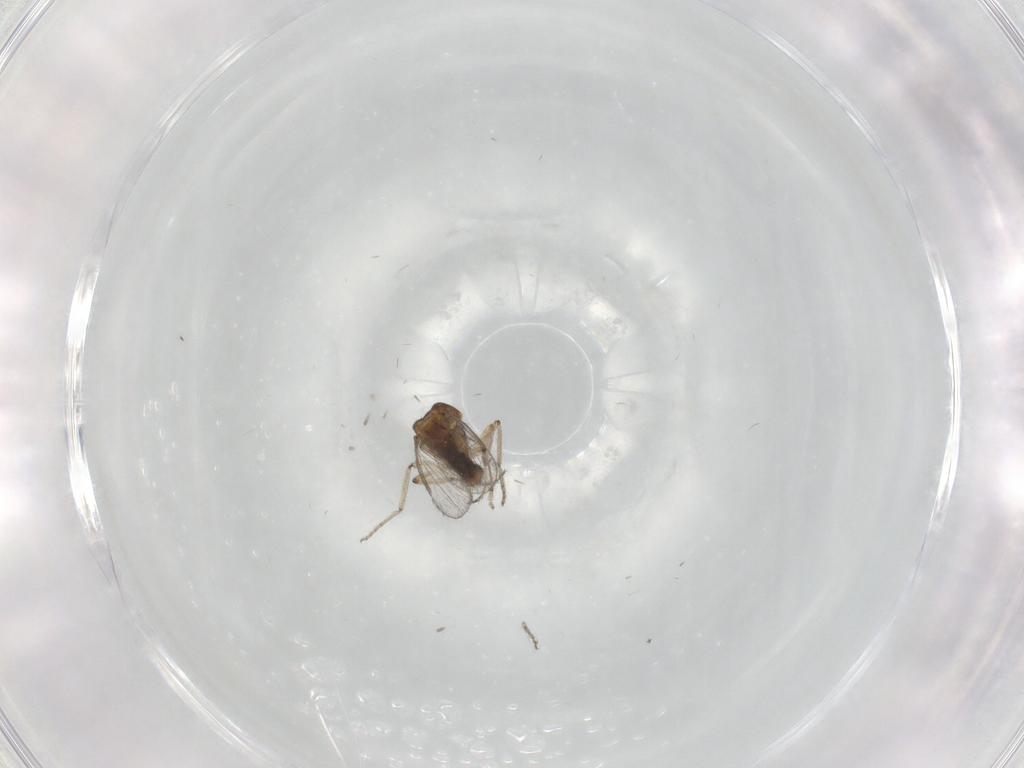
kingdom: Animalia
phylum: Arthropoda
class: Insecta
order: Diptera
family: Ceratopogonidae
